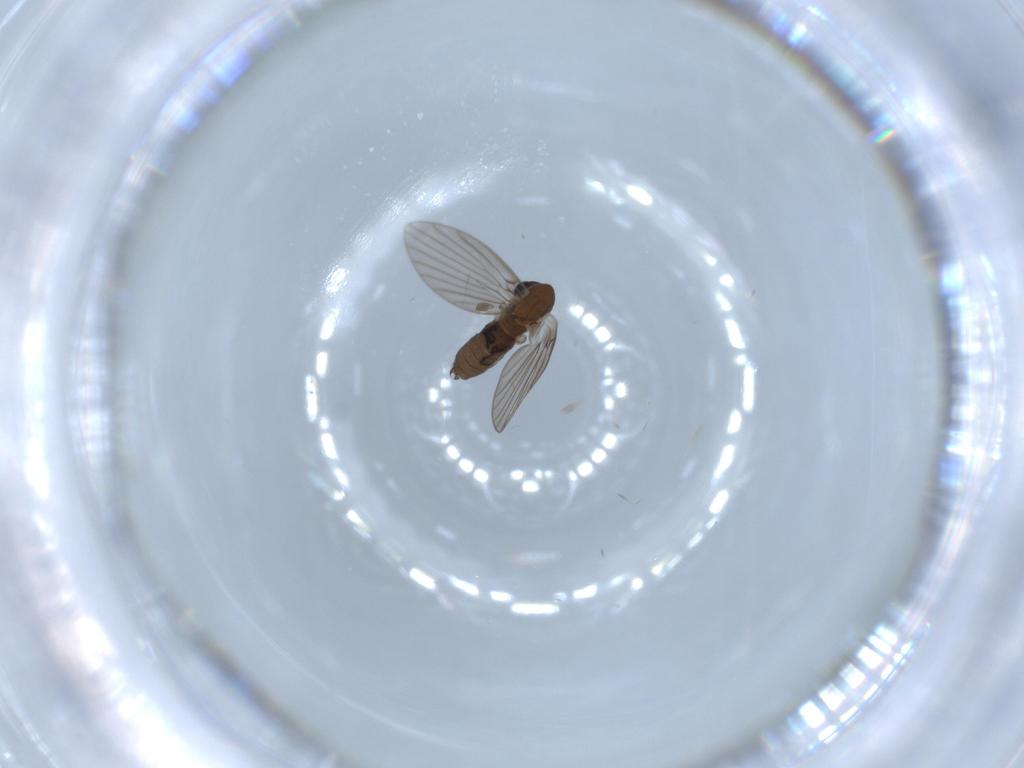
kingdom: Animalia
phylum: Arthropoda
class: Insecta
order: Diptera
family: Psychodidae
